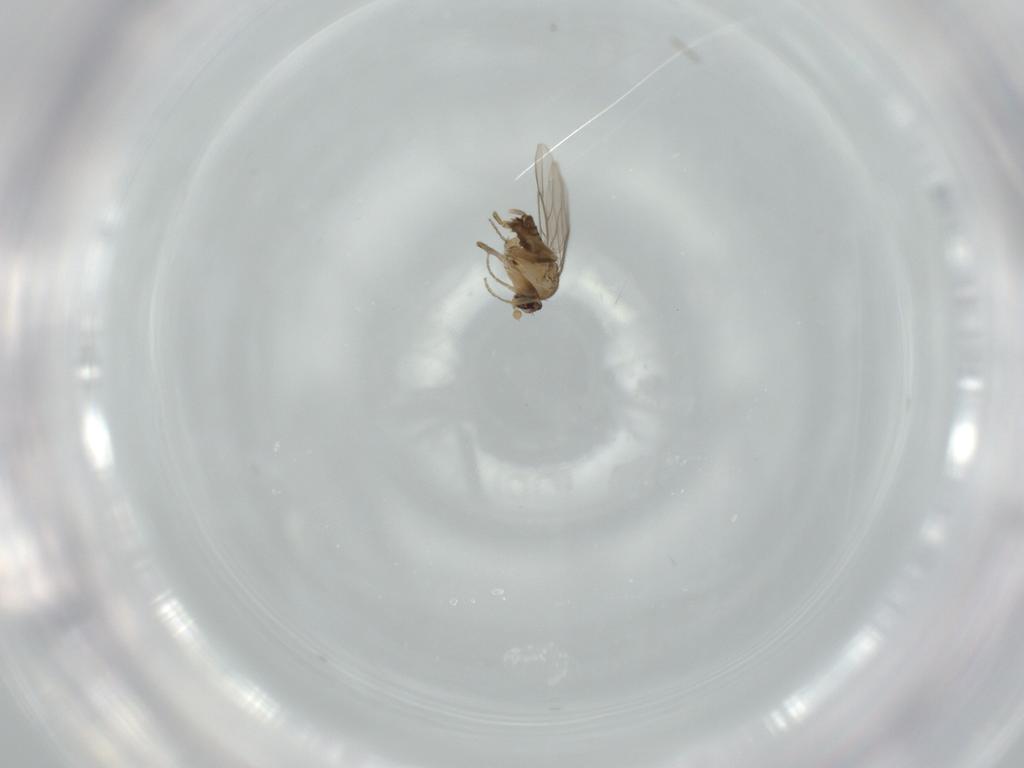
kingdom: Animalia
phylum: Arthropoda
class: Insecta
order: Diptera
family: Phoridae
